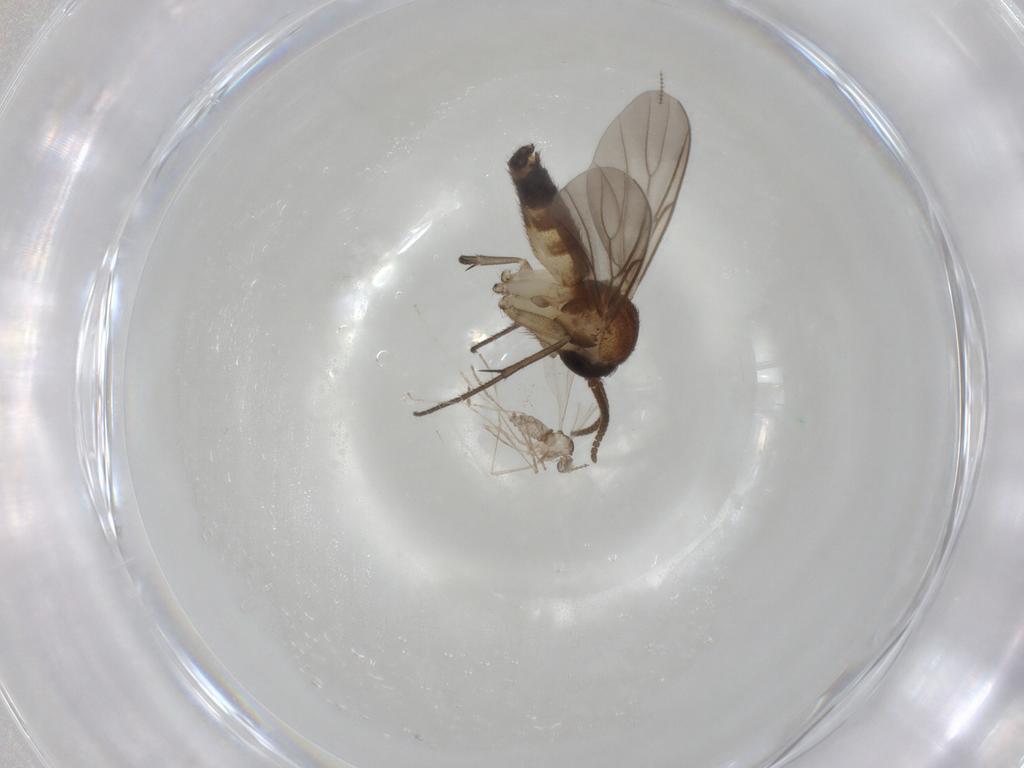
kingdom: Animalia
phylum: Arthropoda
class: Insecta
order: Diptera
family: Mycetophilidae
